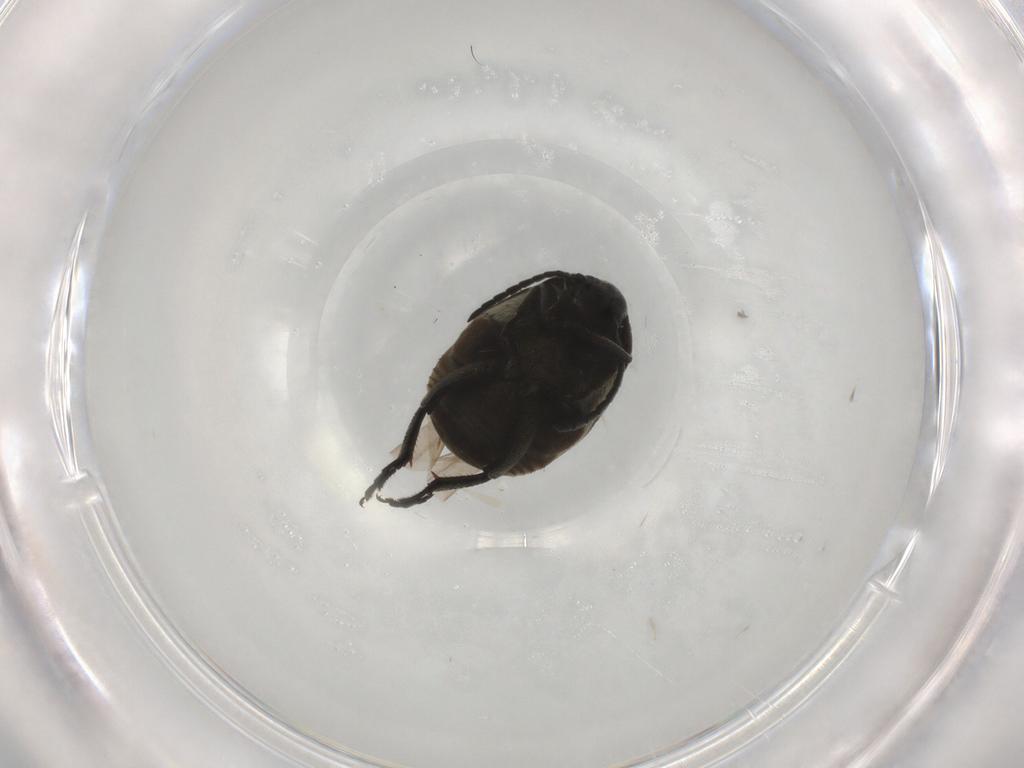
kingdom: Animalia
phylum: Arthropoda
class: Insecta
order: Coleoptera
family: Chrysomelidae
